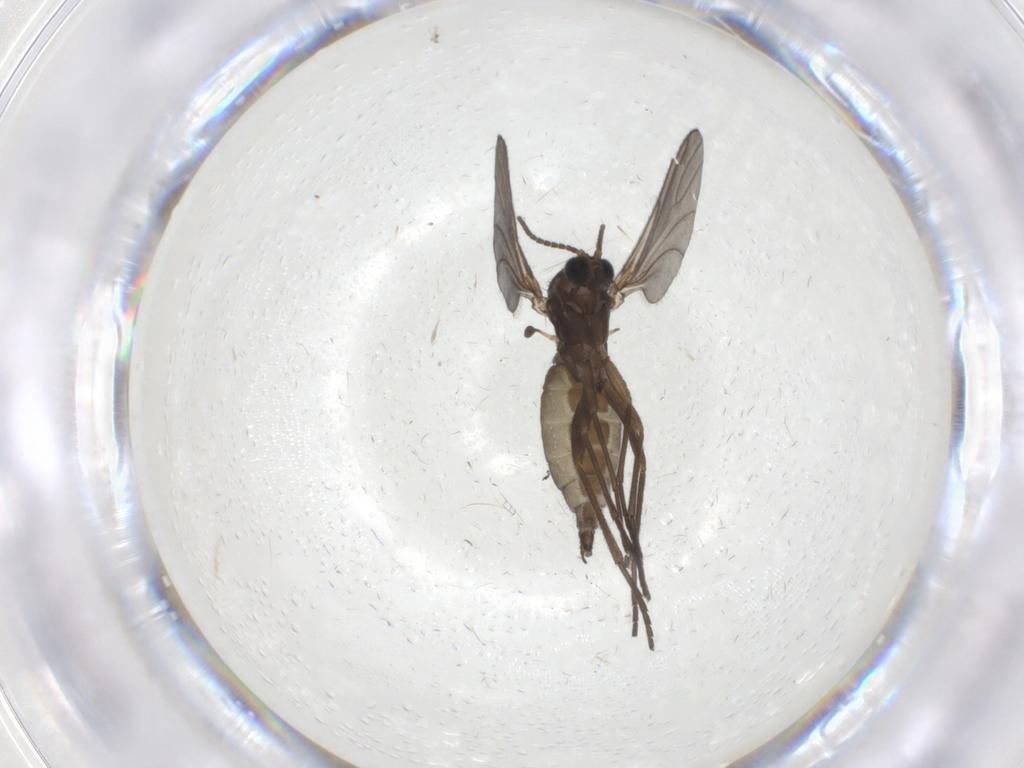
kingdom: Animalia
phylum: Arthropoda
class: Insecta
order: Diptera
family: Sciaridae
